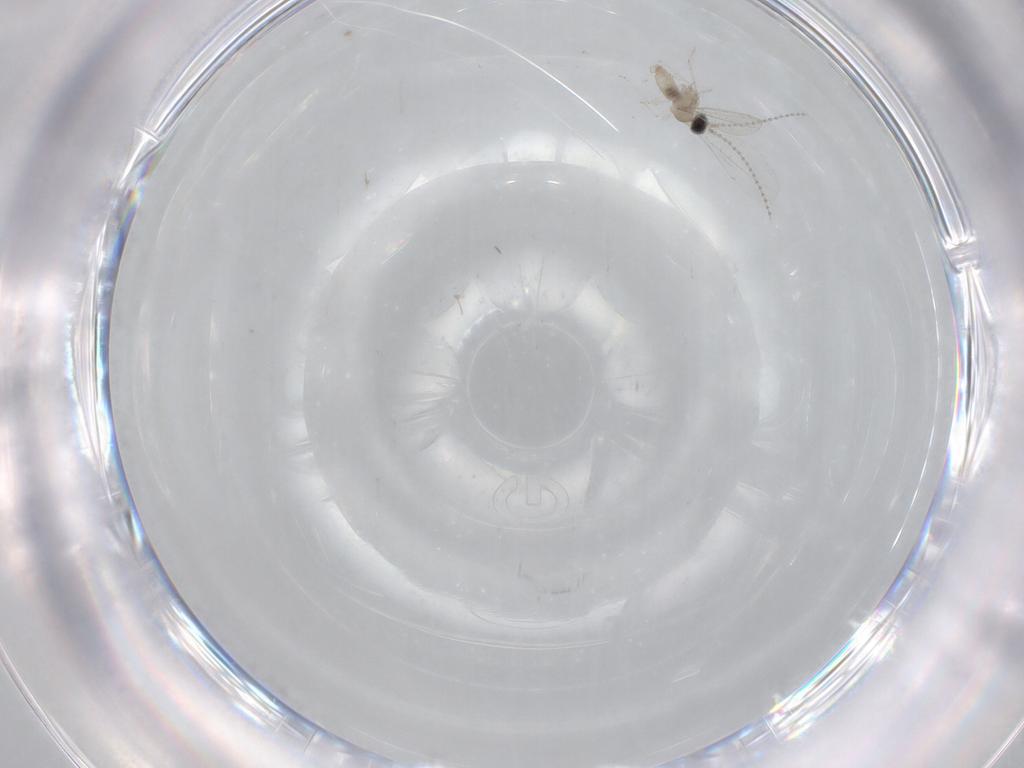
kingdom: Animalia
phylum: Arthropoda
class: Insecta
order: Diptera
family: Cecidomyiidae
